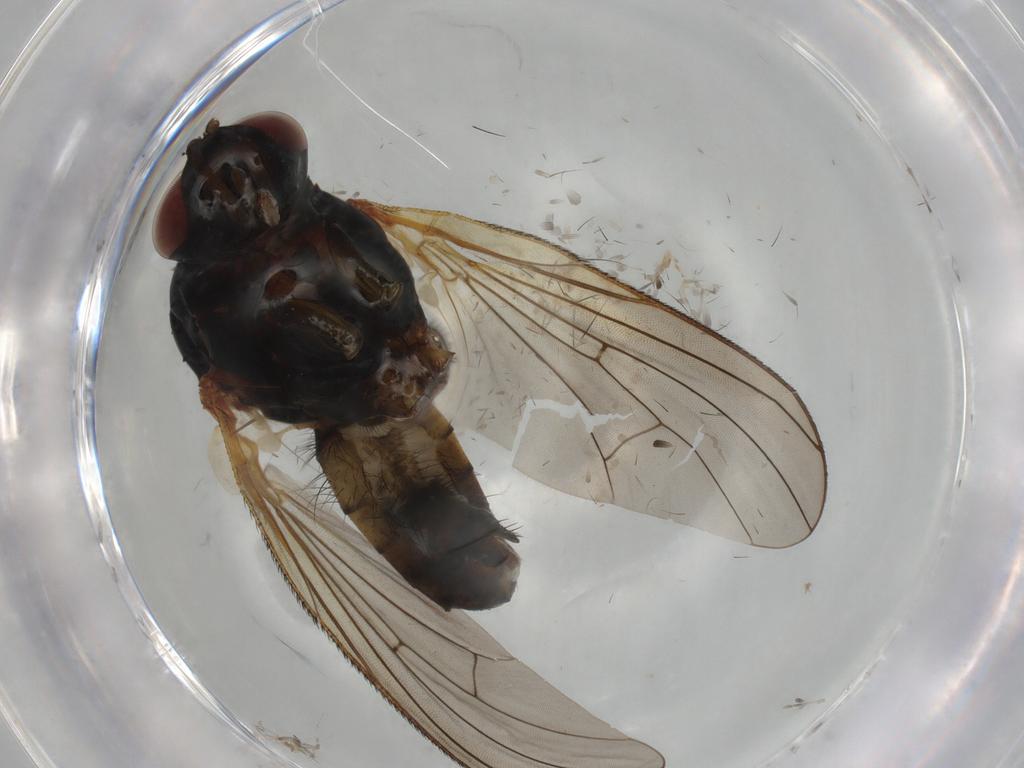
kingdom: Animalia
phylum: Arthropoda
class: Insecta
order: Diptera
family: Anthomyiidae
